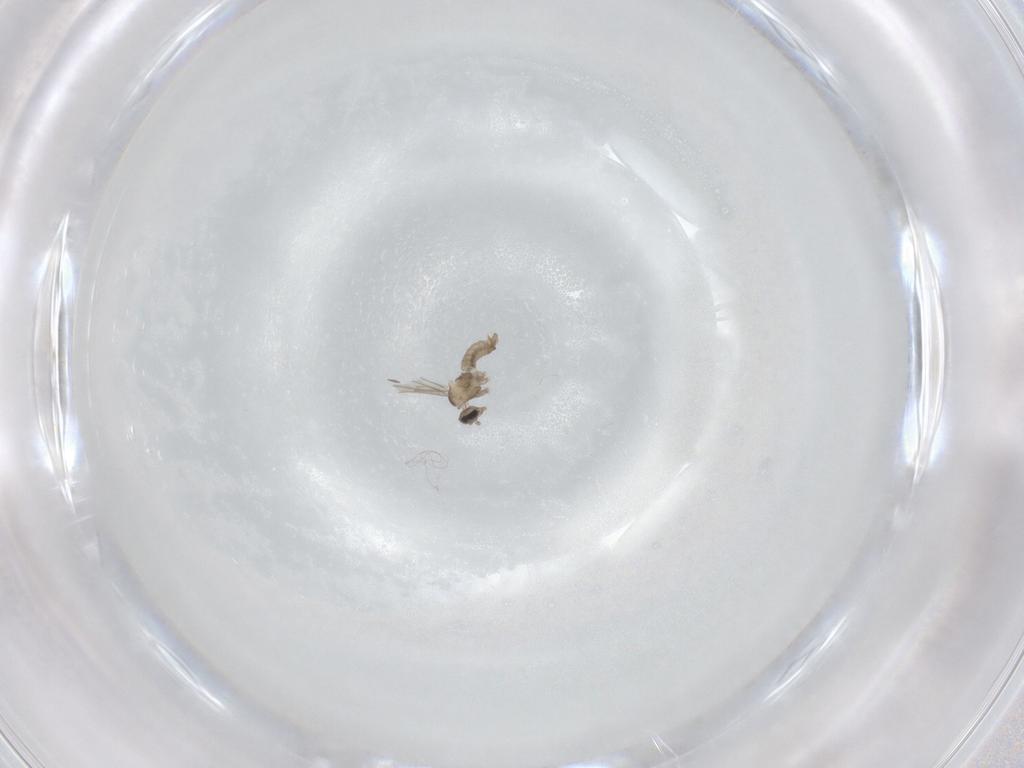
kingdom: Animalia
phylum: Arthropoda
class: Insecta
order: Diptera
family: Cecidomyiidae
